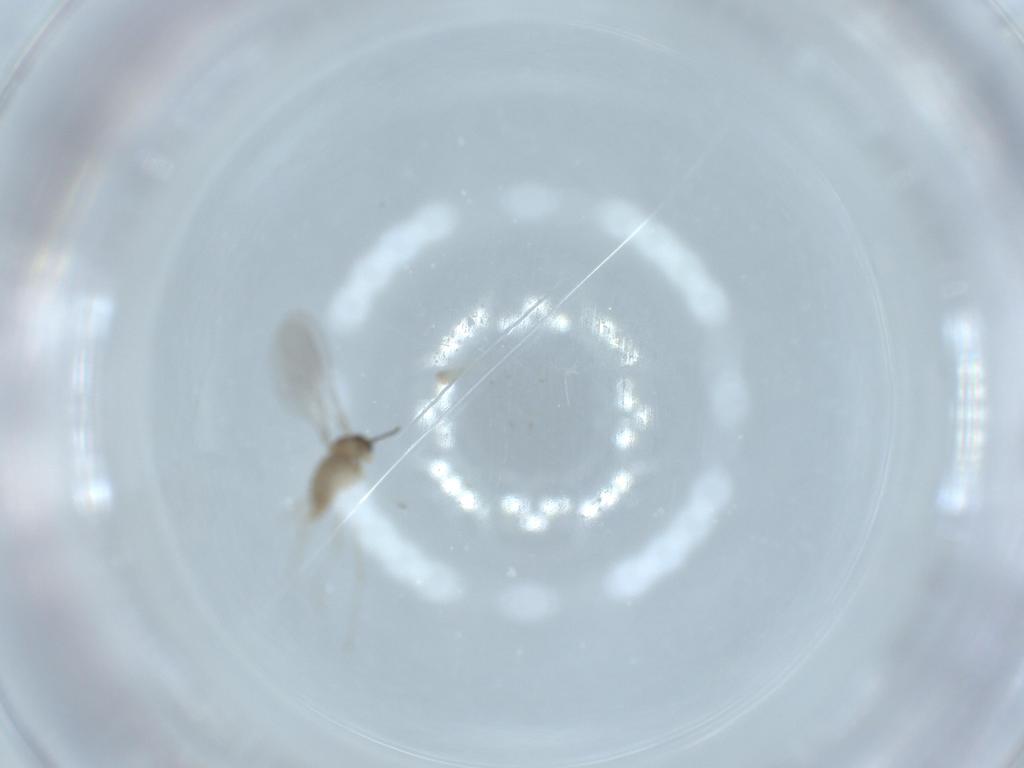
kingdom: Animalia
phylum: Arthropoda
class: Insecta
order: Diptera
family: Cecidomyiidae
